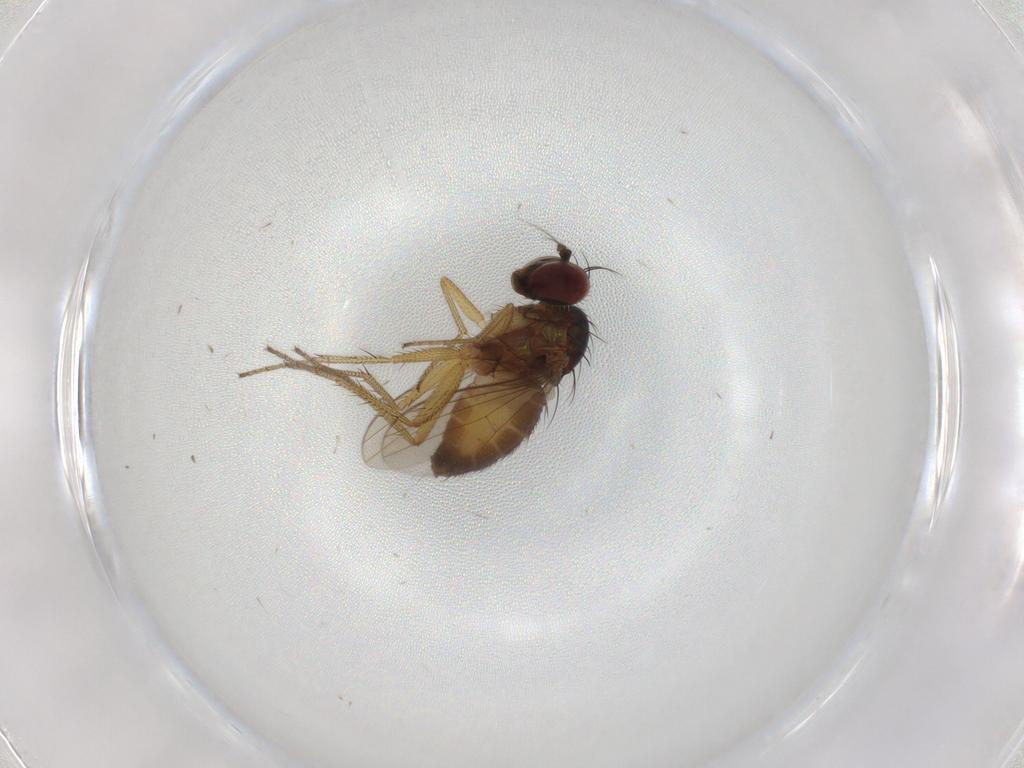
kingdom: Animalia
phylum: Arthropoda
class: Insecta
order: Diptera
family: Dolichopodidae
